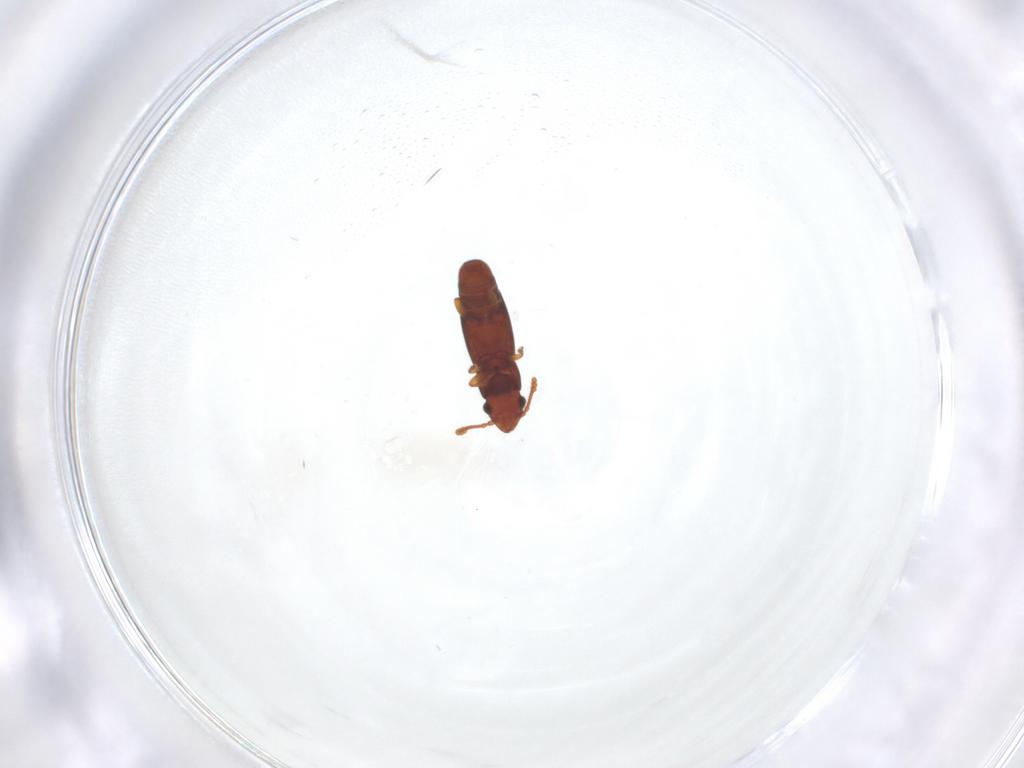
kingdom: Animalia
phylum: Arthropoda
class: Insecta
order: Coleoptera
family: Smicripidae
